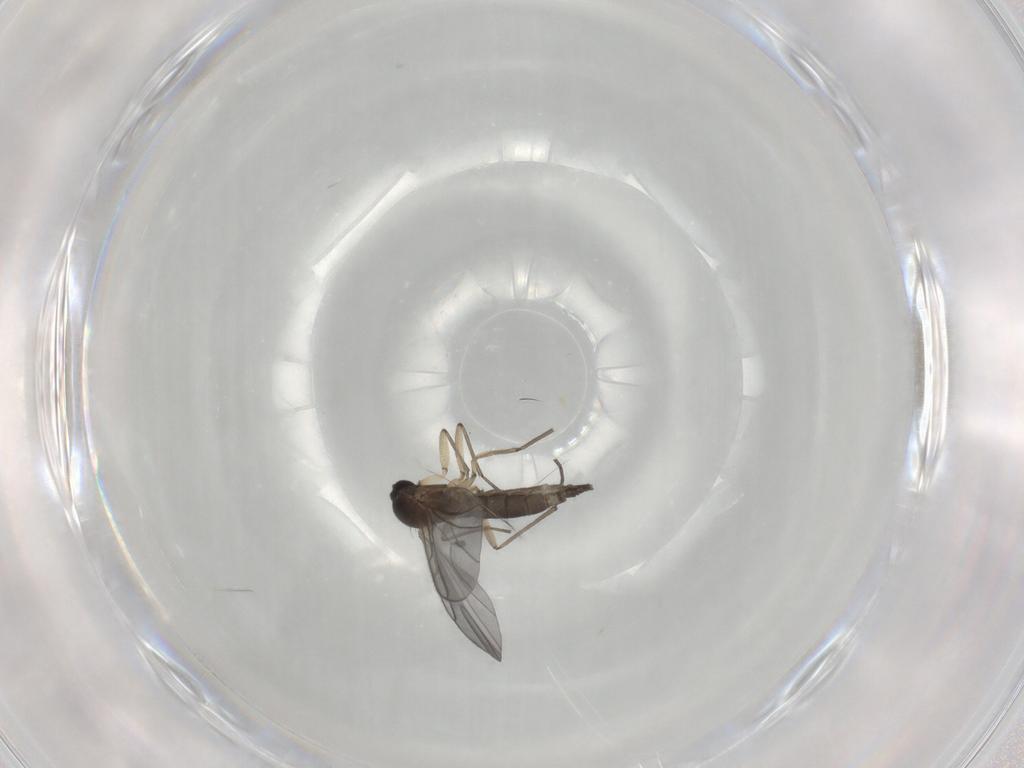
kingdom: Animalia
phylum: Arthropoda
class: Insecta
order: Diptera
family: Sciaridae
